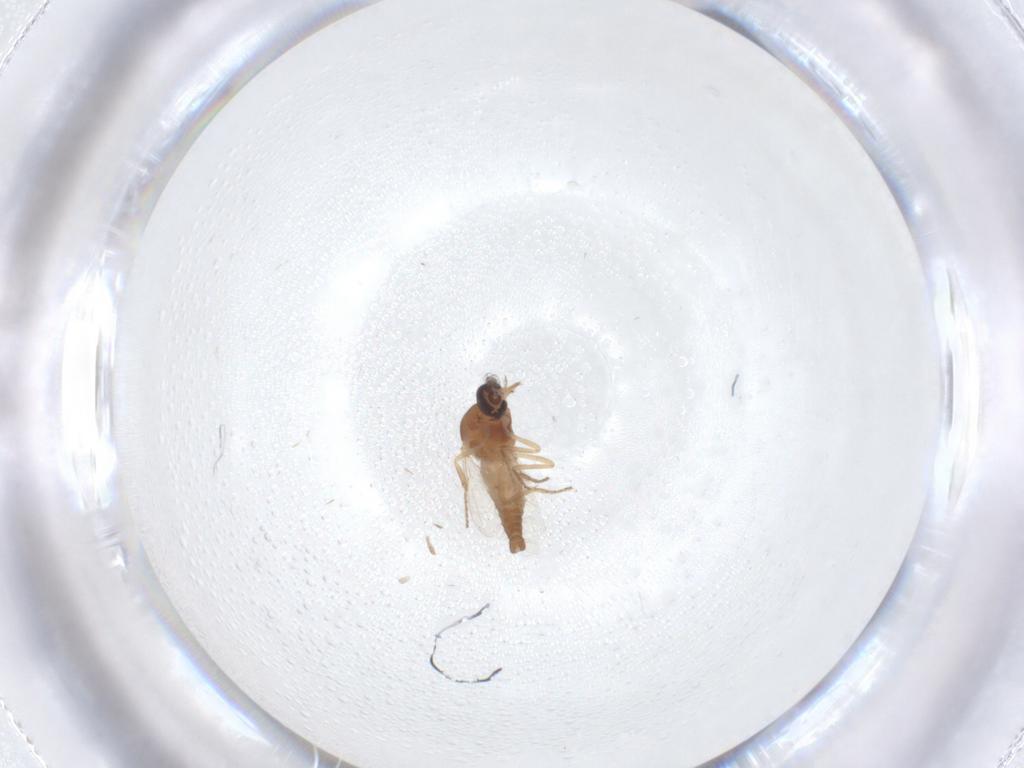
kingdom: Animalia
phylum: Arthropoda
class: Insecta
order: Diptera
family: Ceratopogonidae
